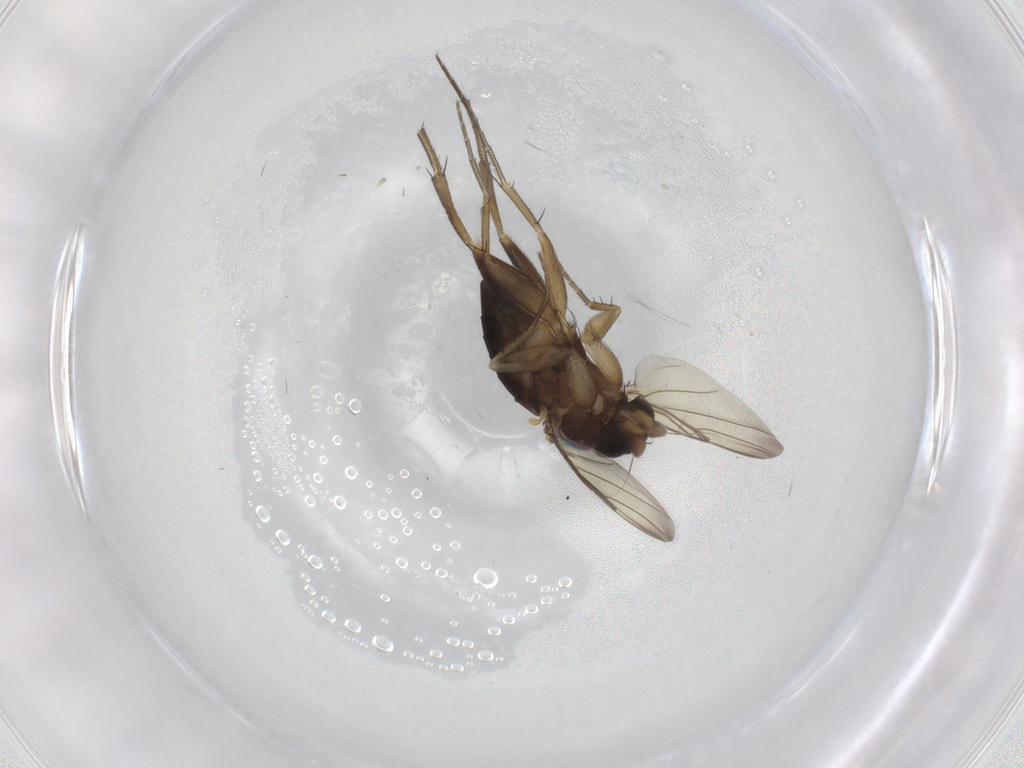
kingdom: Animalia
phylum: Arthropoda
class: Insecta
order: Diptera
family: Phoridae
